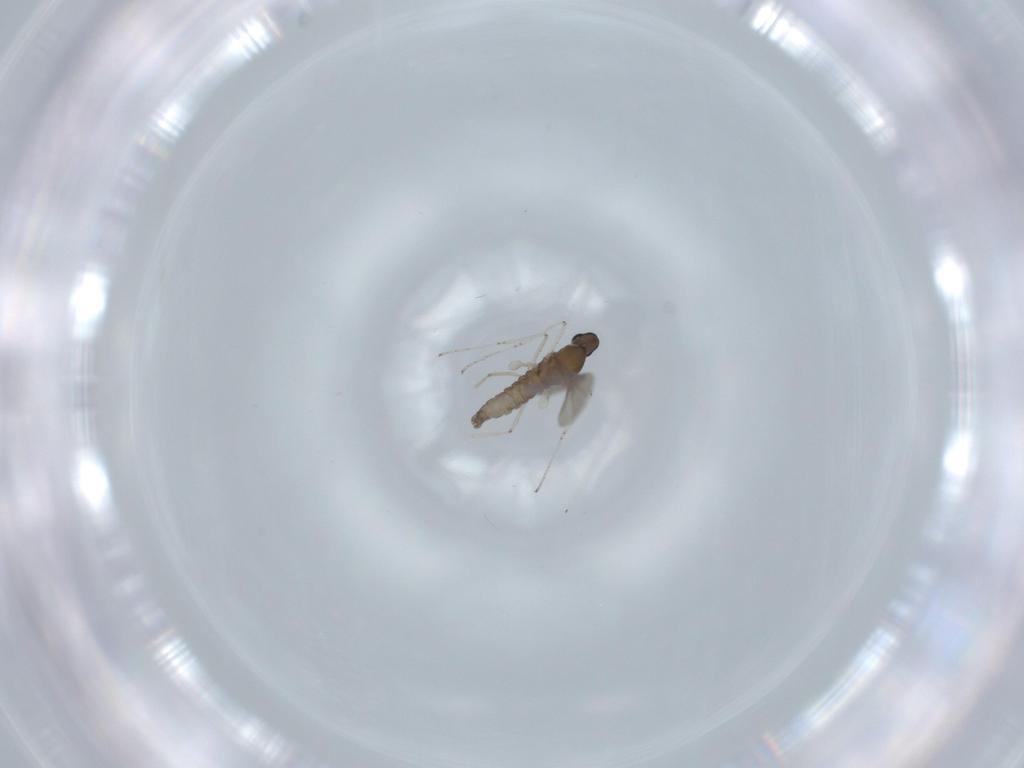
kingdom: Animalia
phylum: Arthropoda
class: Insecta
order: Diptera
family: Cecidomyiidae
